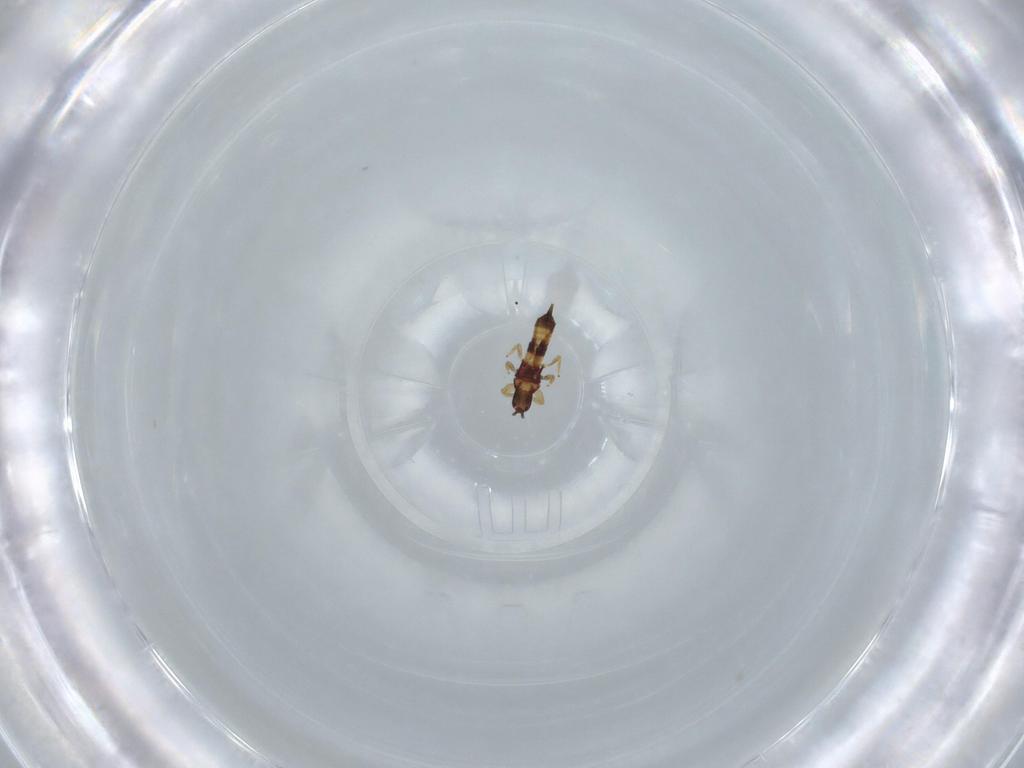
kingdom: Animalia
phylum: Arthropoda
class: Insecta
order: Thysanoptera
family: Phlaeothripidae
